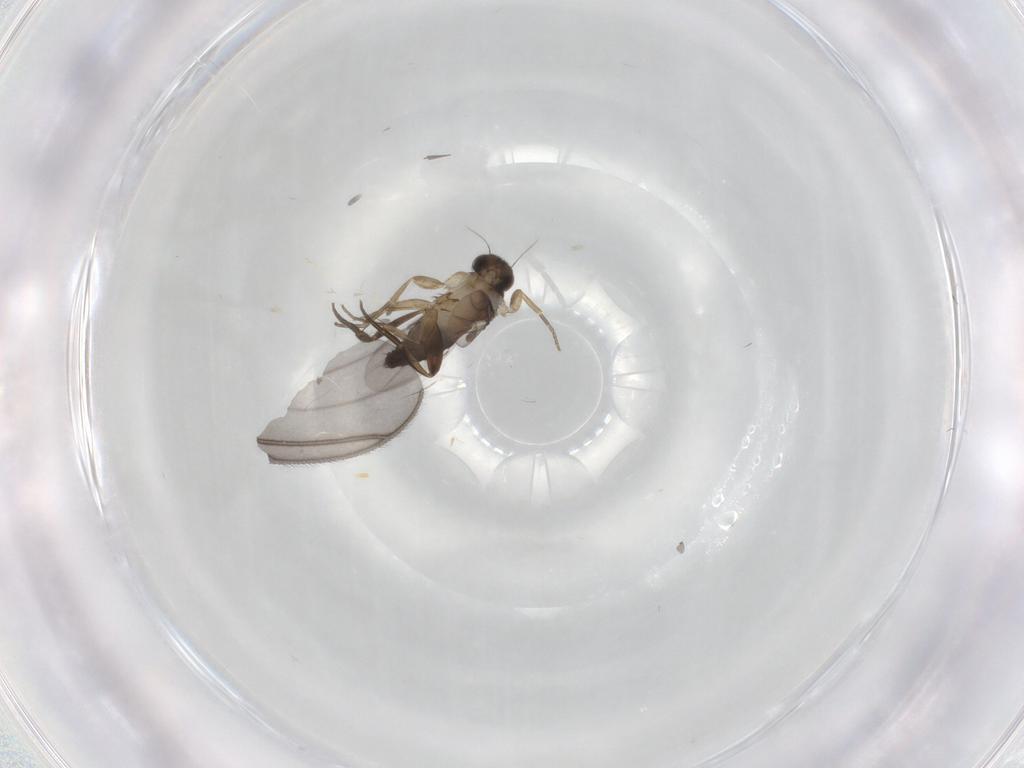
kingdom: Animalia
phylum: Arthropoda
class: Insecta
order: Diptera
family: Phoridae
